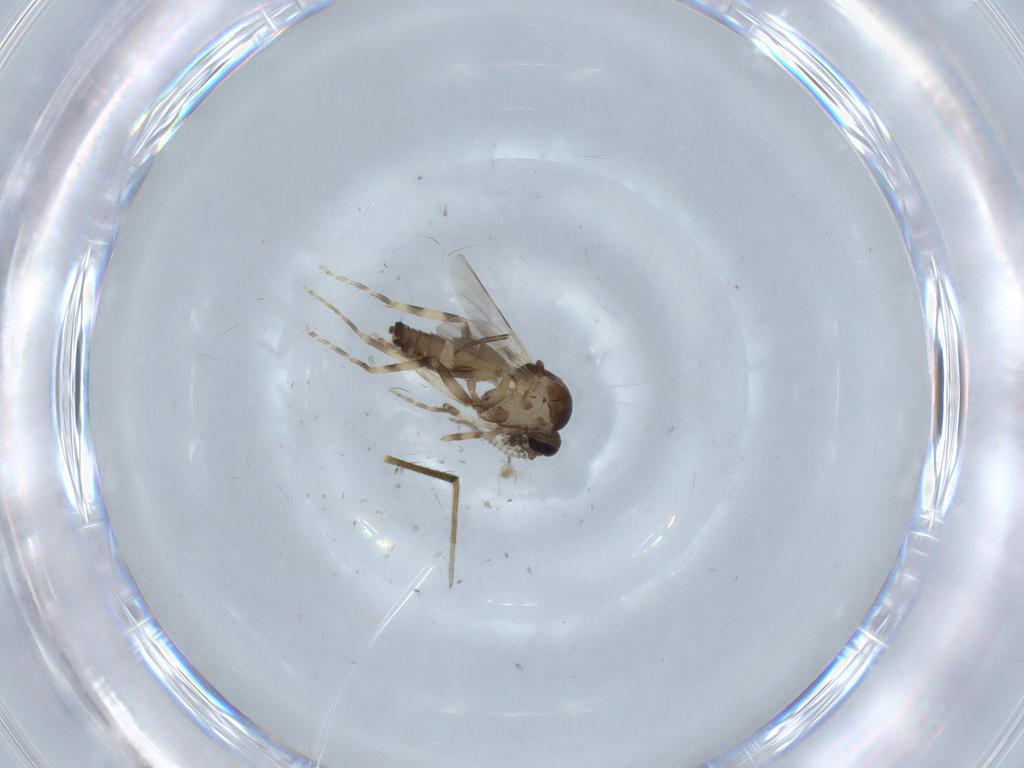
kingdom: Animalia
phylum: Arthropoda
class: Insecta
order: Diptera
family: Ceratopogonidae
